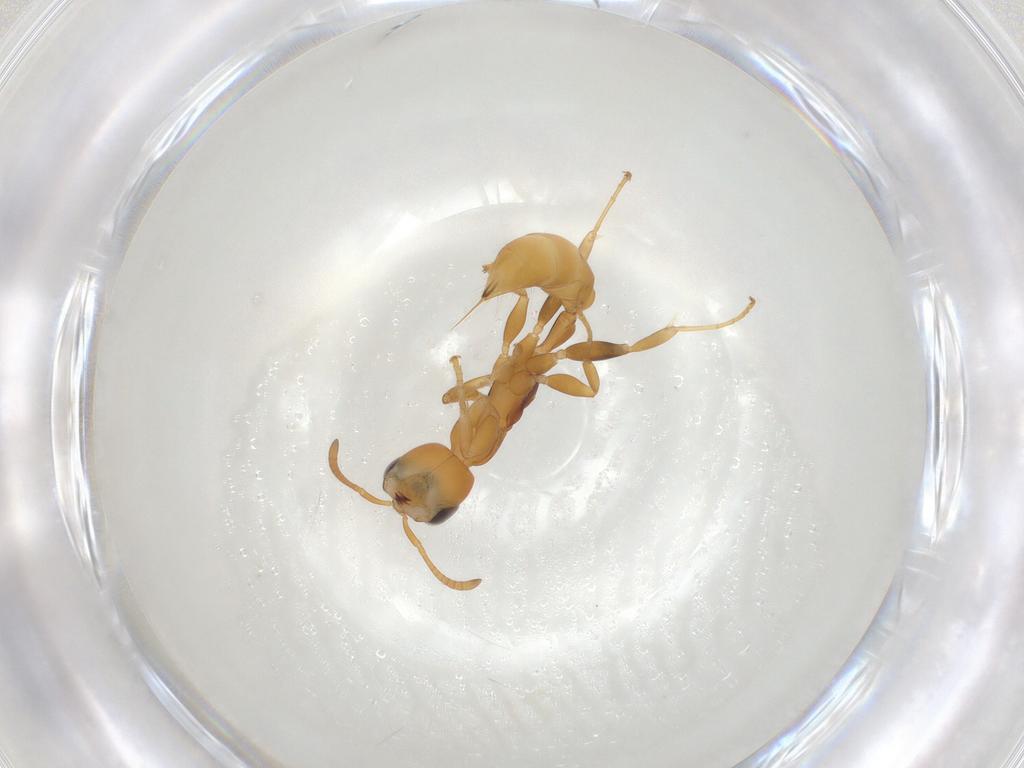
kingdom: Animalia
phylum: Arthropoda
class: Insecta
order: Hymenoptera
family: Formicidae
